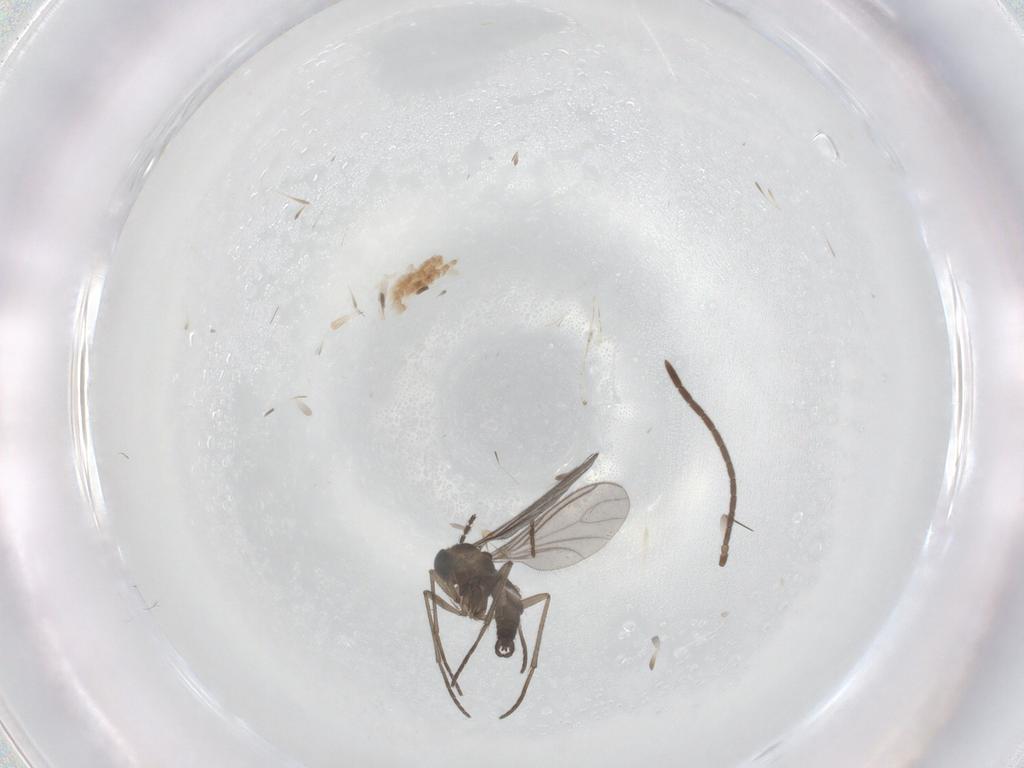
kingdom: Animalia
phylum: Arthropoda
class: Insecta
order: Diptera
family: Sciaridae
